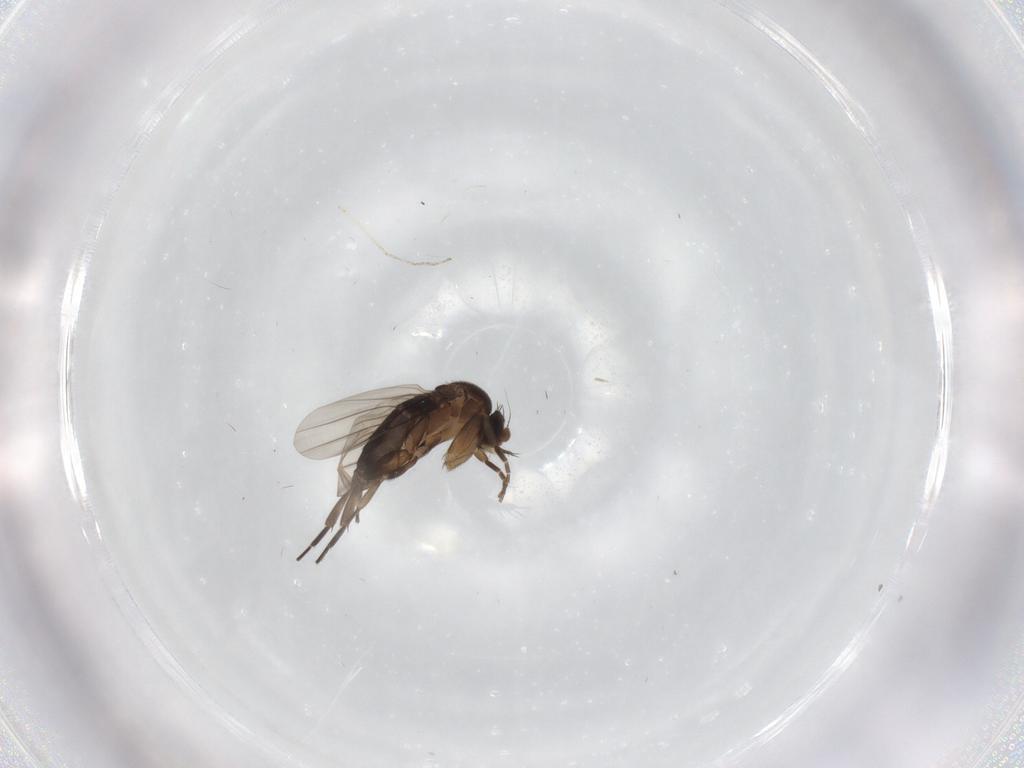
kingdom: Animalia
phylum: Arthropoda
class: Insecta
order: Diptera
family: Phoridae
